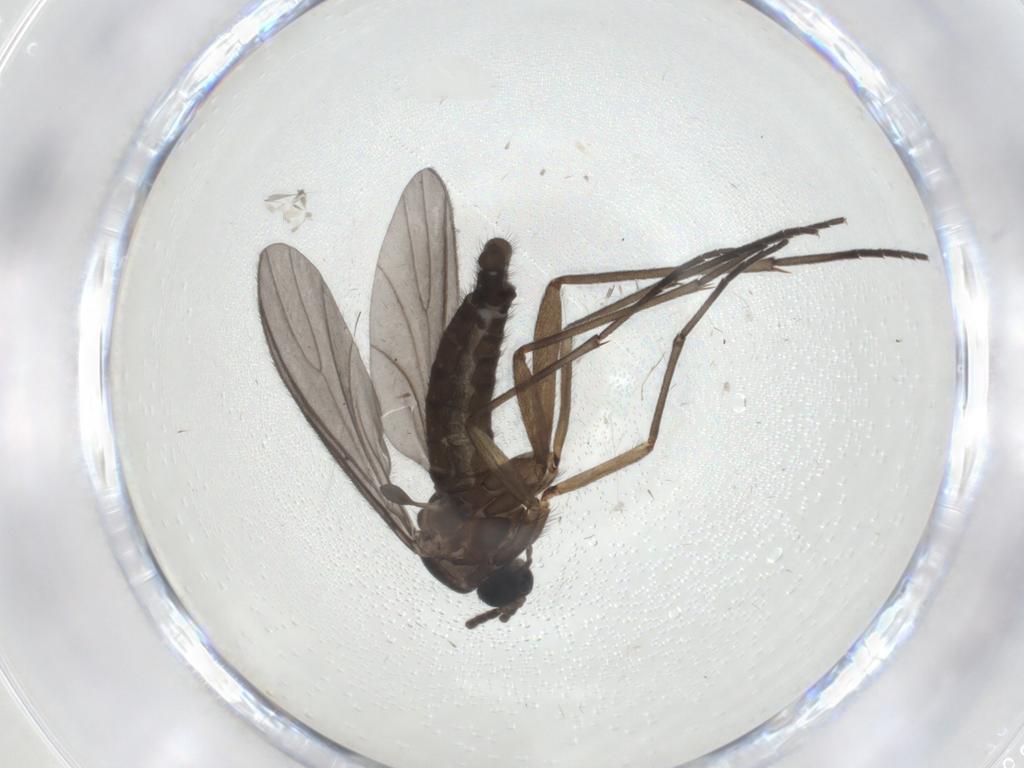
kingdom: Animalia
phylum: Arthropoda
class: Insecta
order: Diptera
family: Sciaridae
